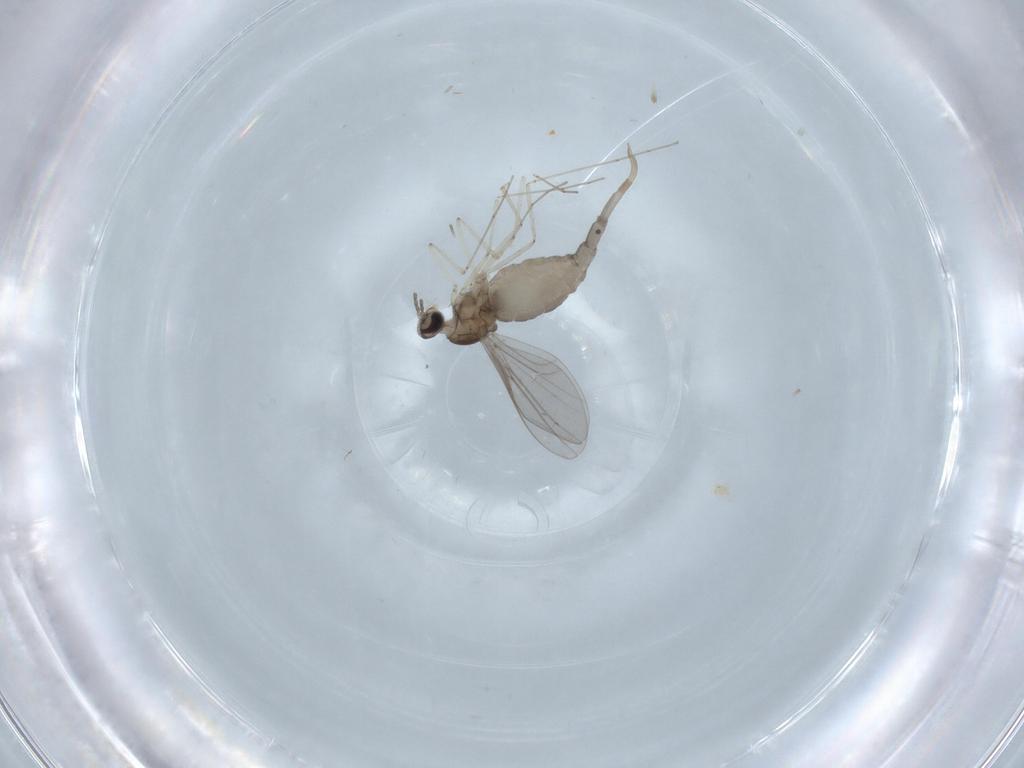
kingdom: Animalia
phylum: Arthropoda
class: Insecta
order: Diptera
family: Cecidomyiidae
